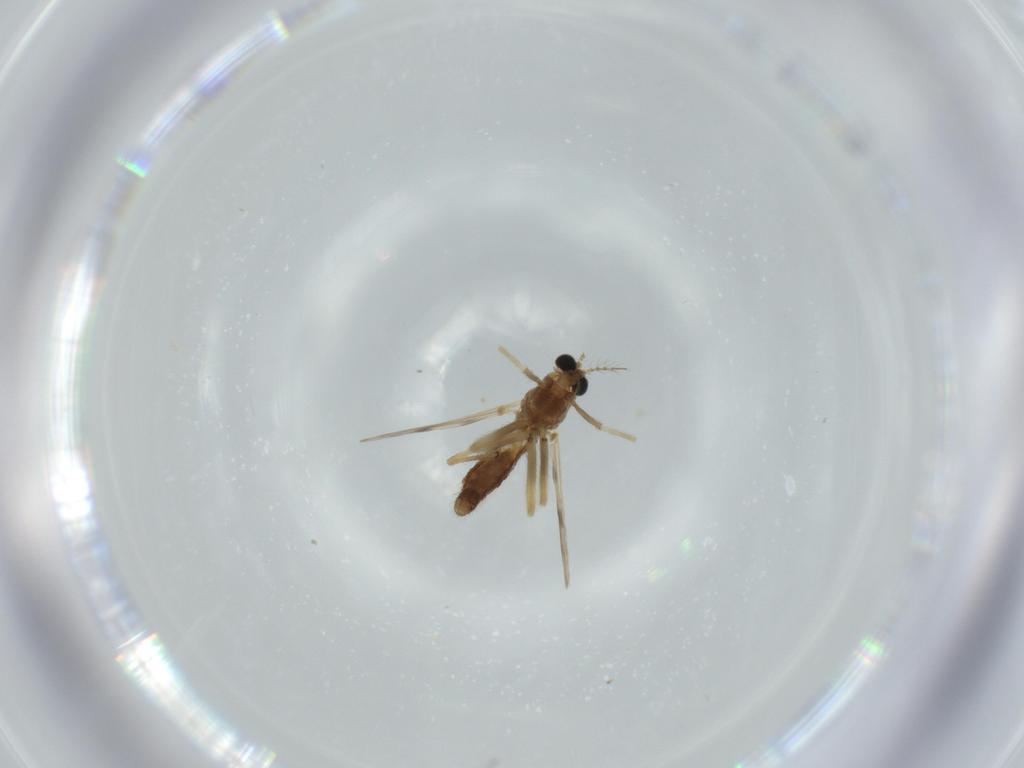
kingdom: Animalia
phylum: Arthropoda
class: Insecta
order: Diptera
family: Chironomidae
